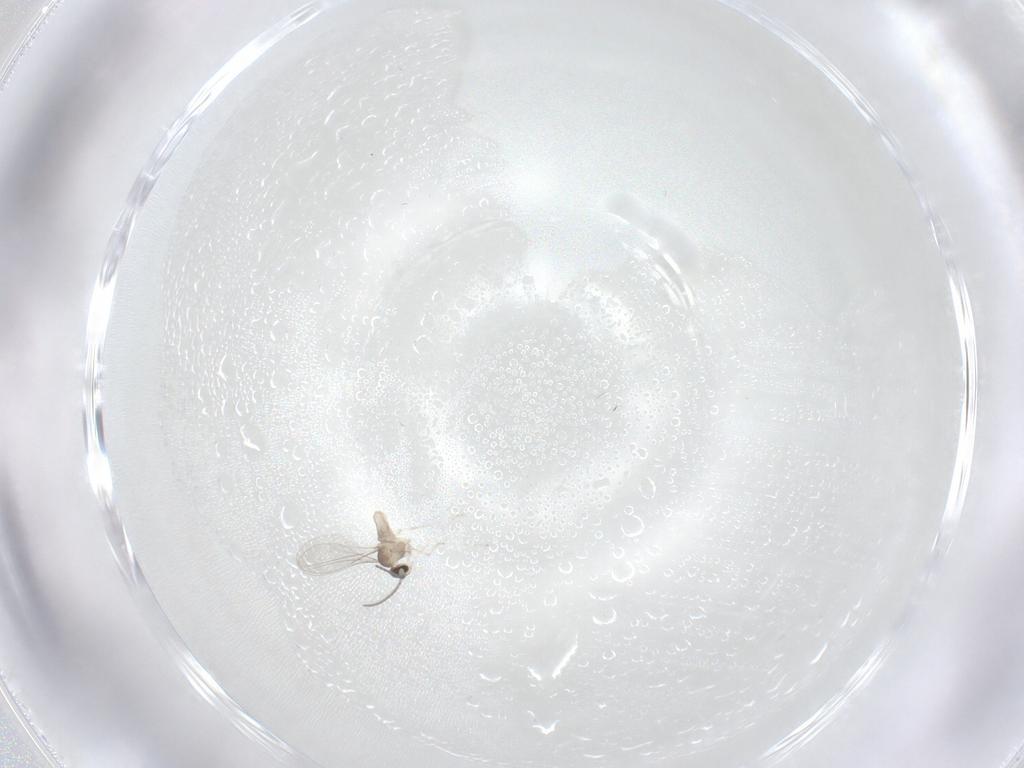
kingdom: Animalia
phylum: Arthropoda
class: Insecta
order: Diptera
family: Cecidomyiidae
